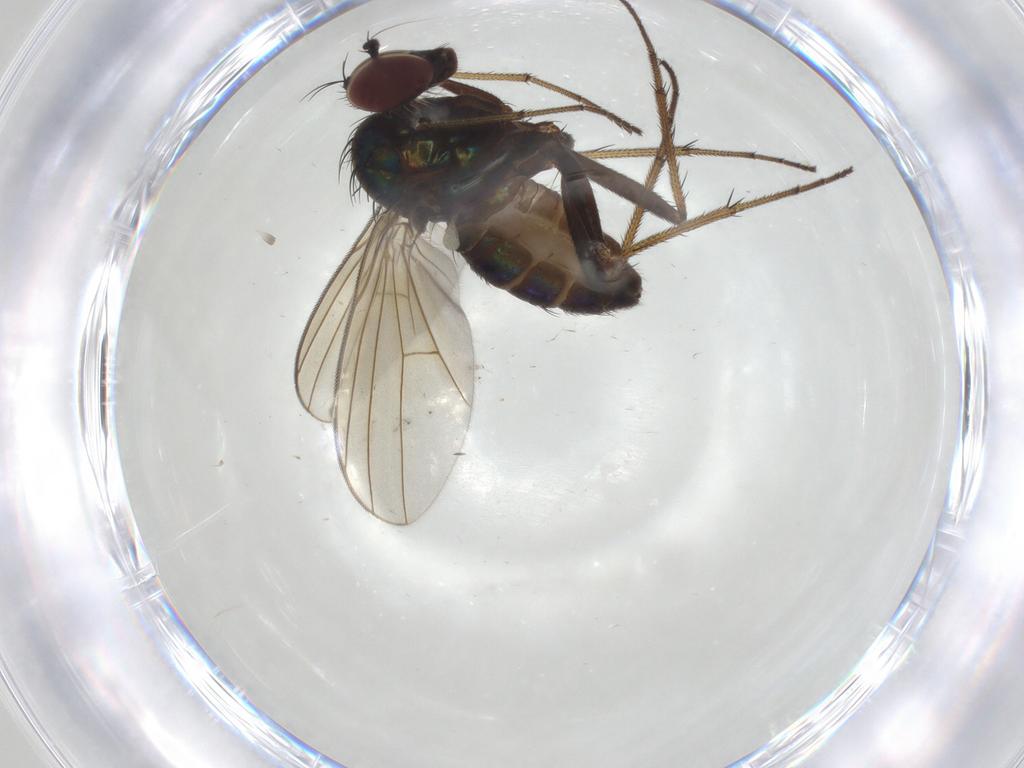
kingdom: Animalia
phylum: Arthropoda
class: Insecta
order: Diptera
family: Dolichopodidae
